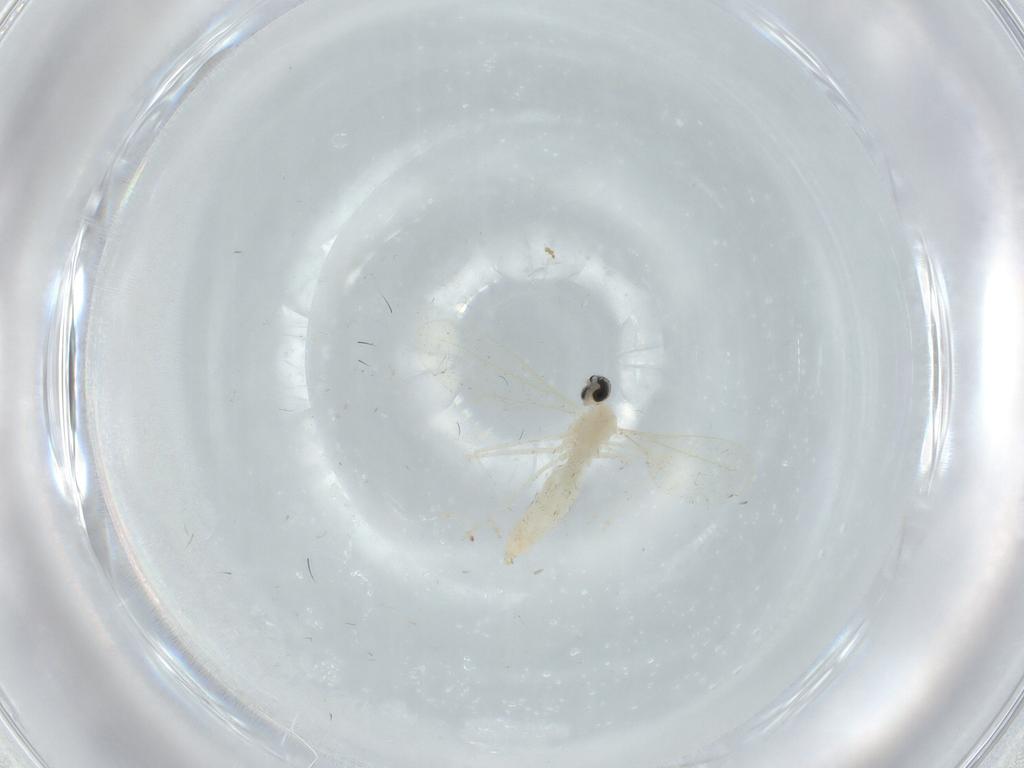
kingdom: Animalia
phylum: Arthropoda
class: Insecta
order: Diptera
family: Cecidomyiidae
